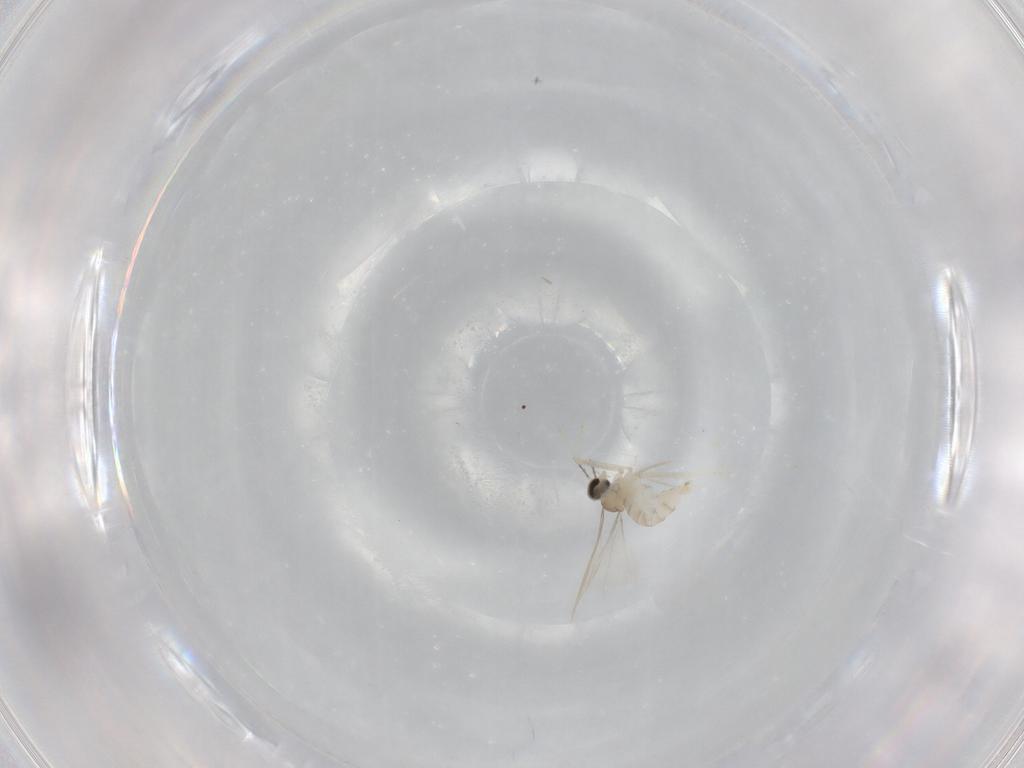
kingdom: Animalia
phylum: Arthropoda
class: Insecta
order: Diptera
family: Cecidomyiidae
